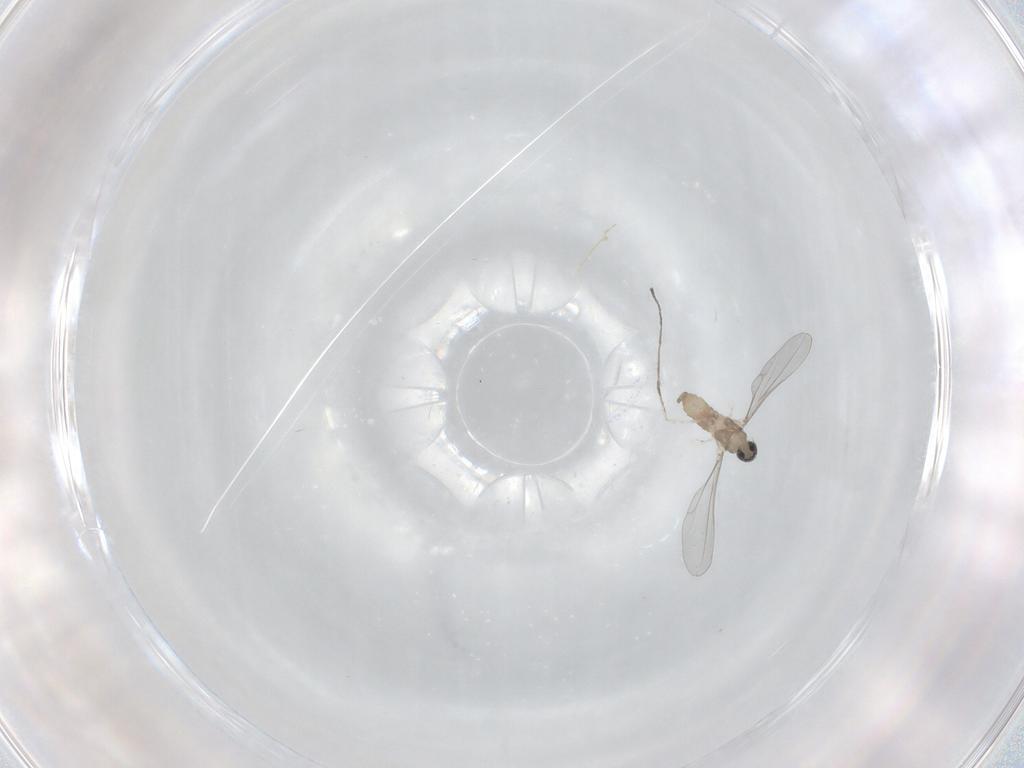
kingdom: Animalia
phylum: Arthropoda
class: Insecta
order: Diptera
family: Cecidomyiidae
